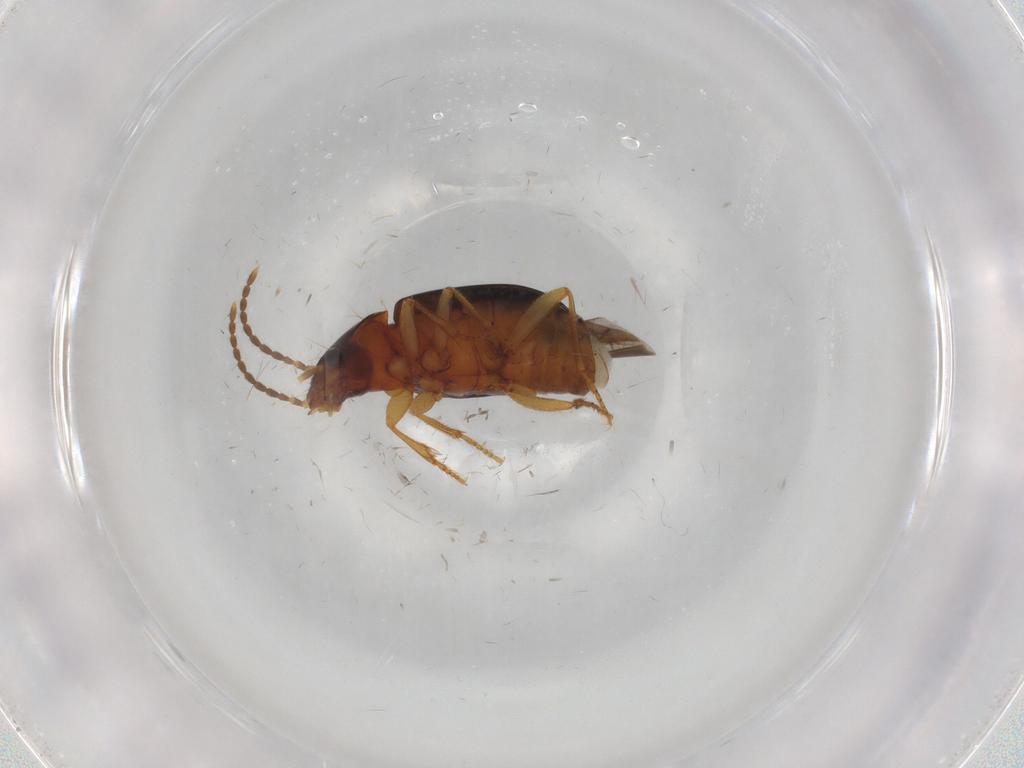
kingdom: Animalia
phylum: Arthropoda
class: Insecta
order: Coleoptera
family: Carabidae
